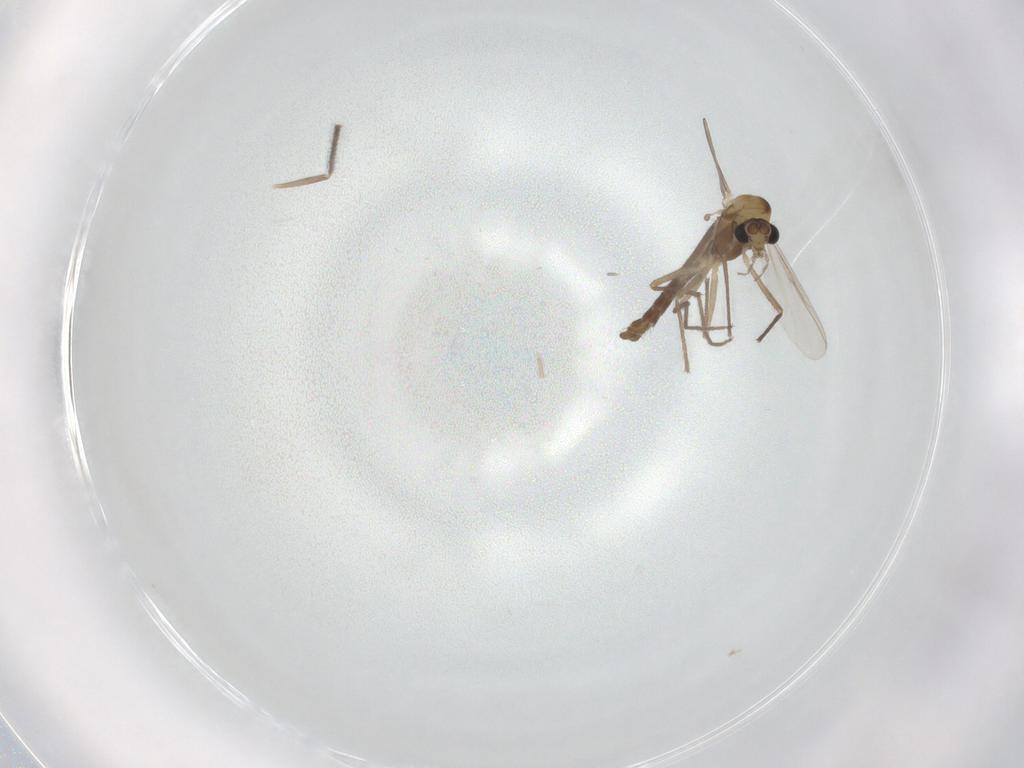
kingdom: Animalia
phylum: Arthropoda
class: Insecta
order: Diptera
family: Chironomidae
